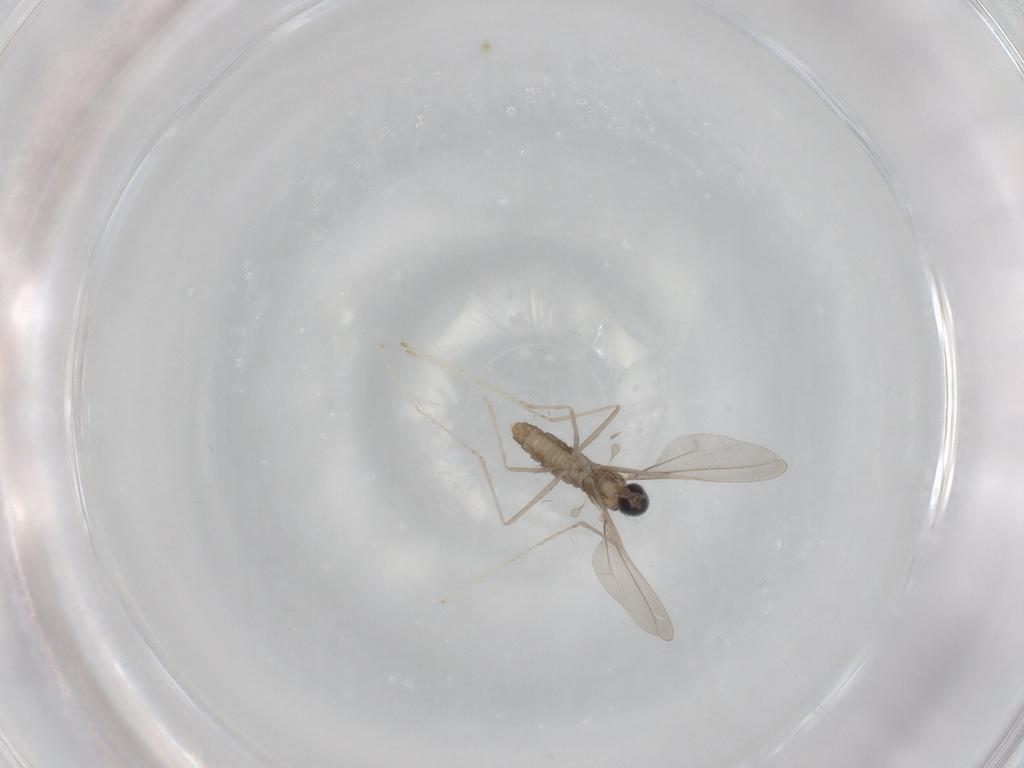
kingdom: Animalia
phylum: Arthropoda
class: Insecta
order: Diptera
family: Cecidomyiidae
